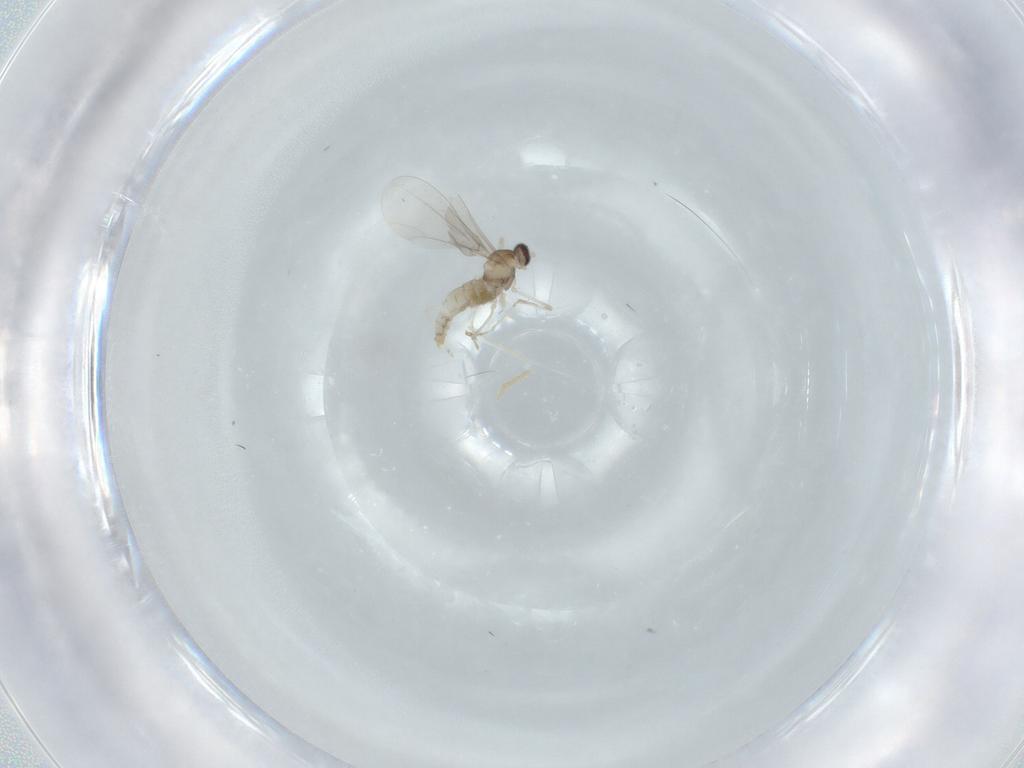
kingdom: Animalia
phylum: Arthropoda
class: Insecta
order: Diptera
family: Cecidomyiidae
